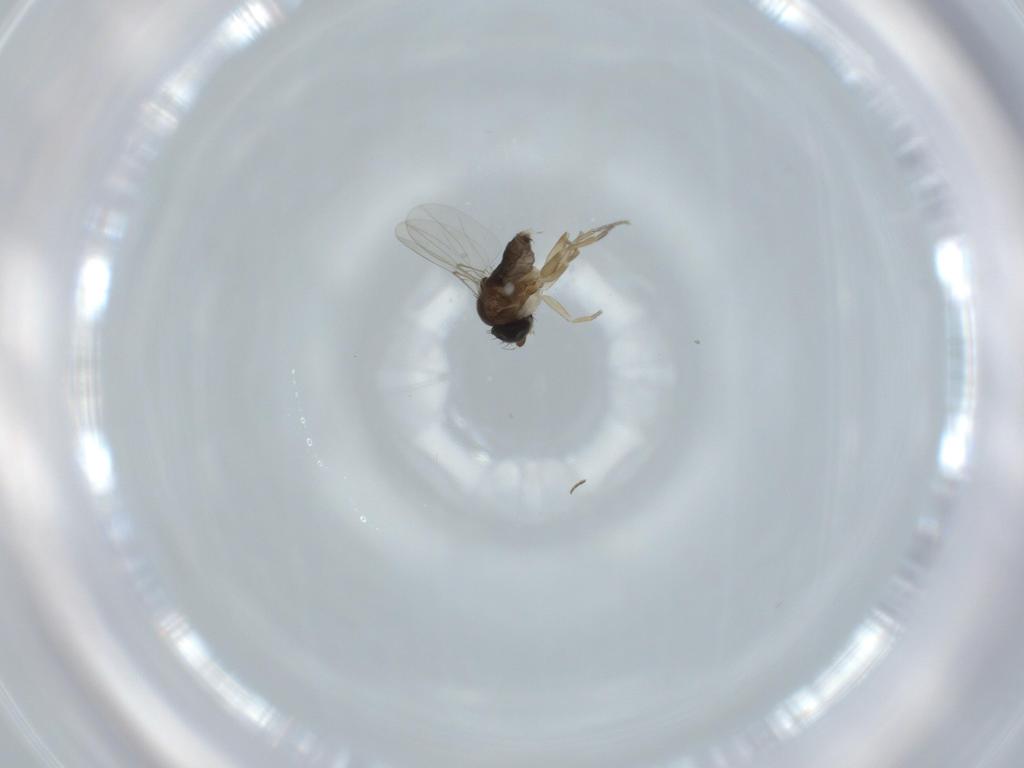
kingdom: Animalia
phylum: Arthropoda
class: Insecta
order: Diptera
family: Phoridae
